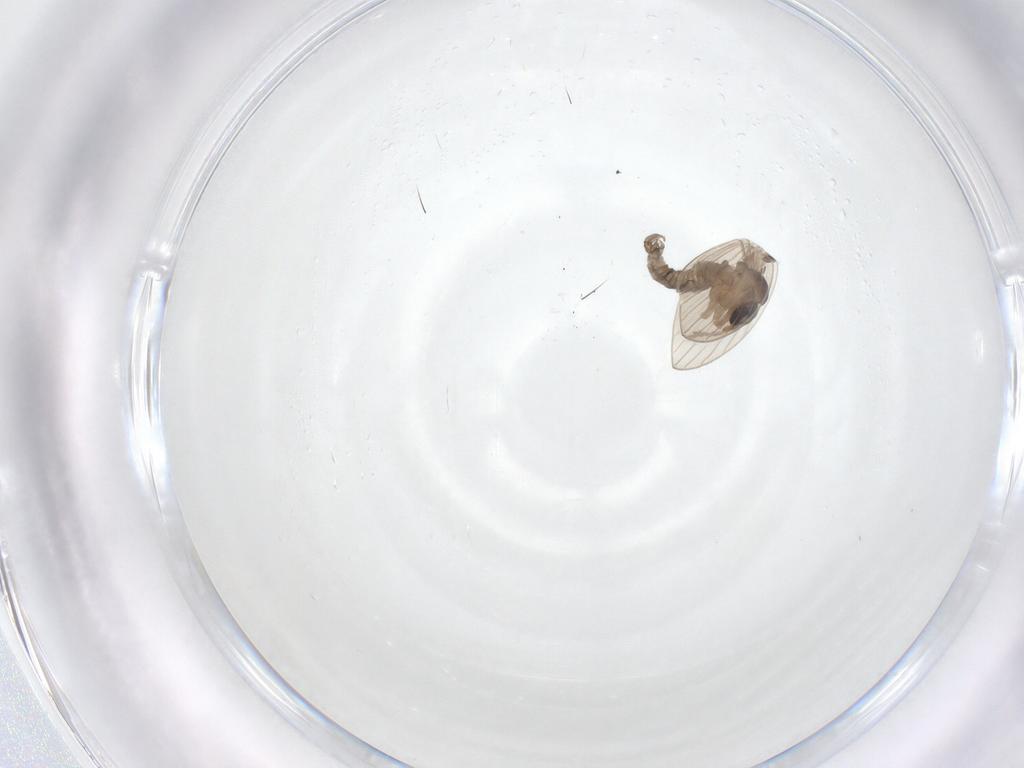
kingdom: Animalia
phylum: Arthropoda
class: Insecta
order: Diptera
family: Psychodidae
